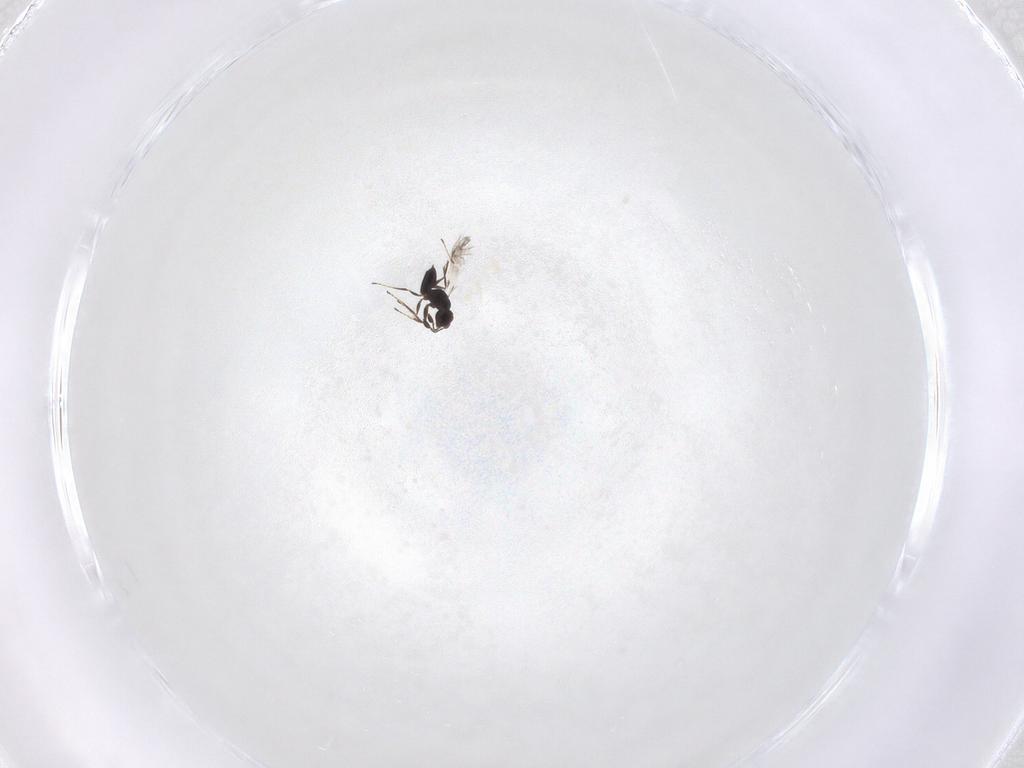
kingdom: Animalia
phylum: Arthropoda
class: Insecta
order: Hymenoptera
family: Mymaridae
